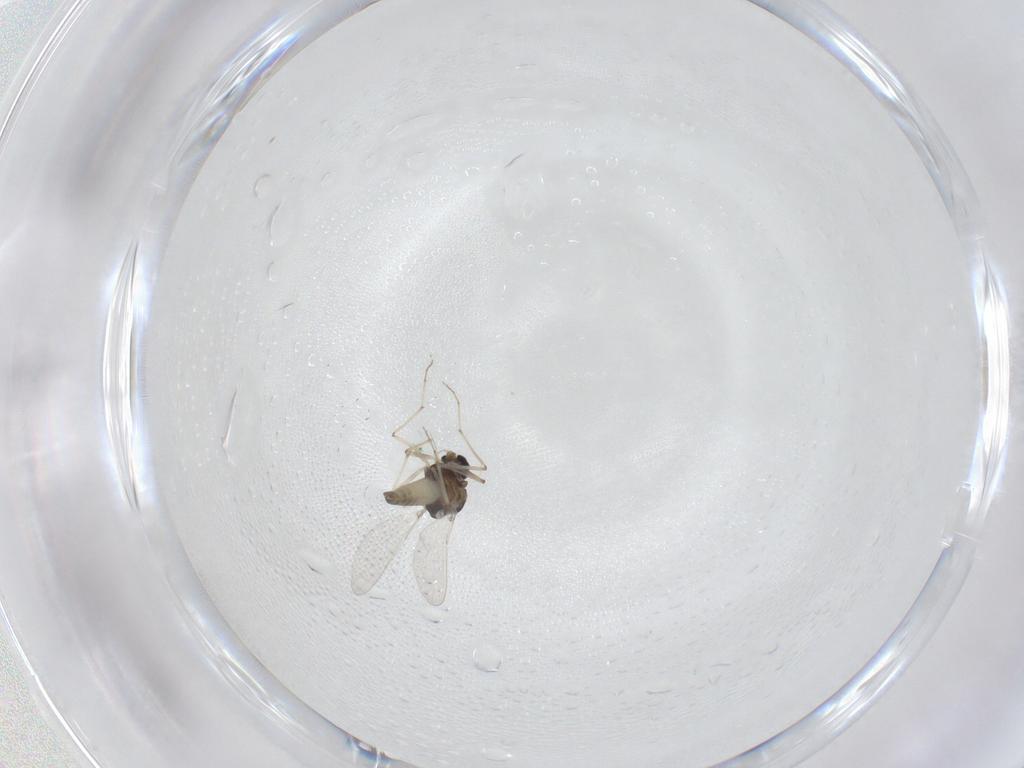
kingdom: Animalia
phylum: Arthropoda
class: Insecta
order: Diptera
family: Chironomidae
